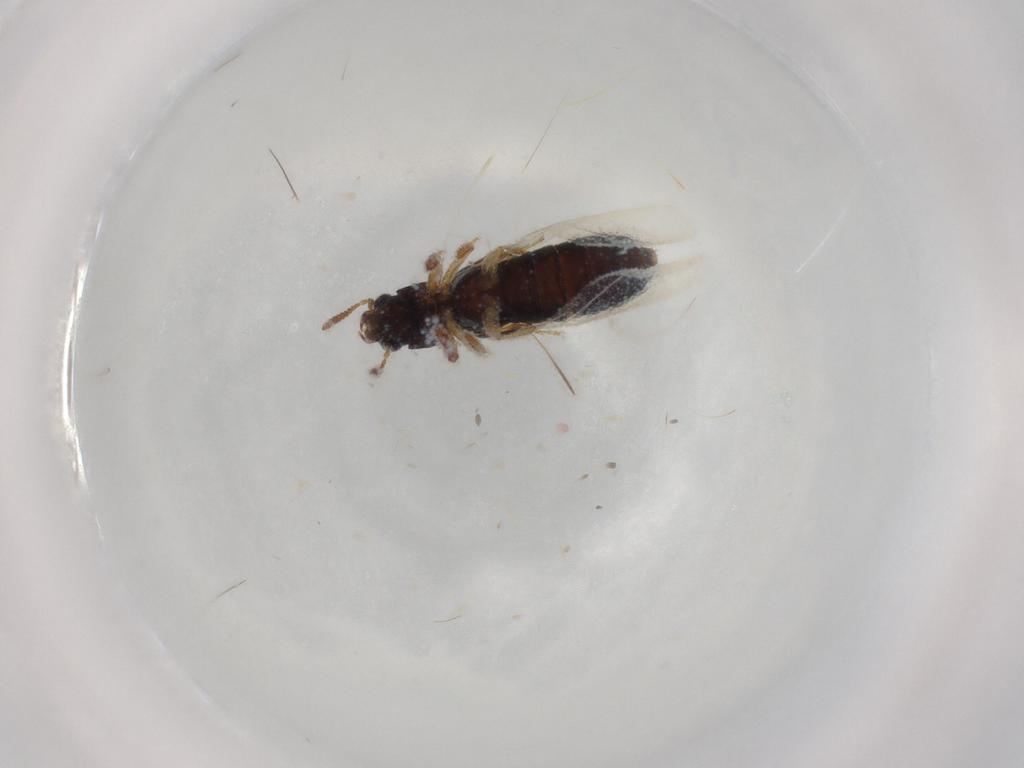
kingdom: Animalia
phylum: Arthropoda
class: Insecta
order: Coleoptera
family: Staphylinidae
